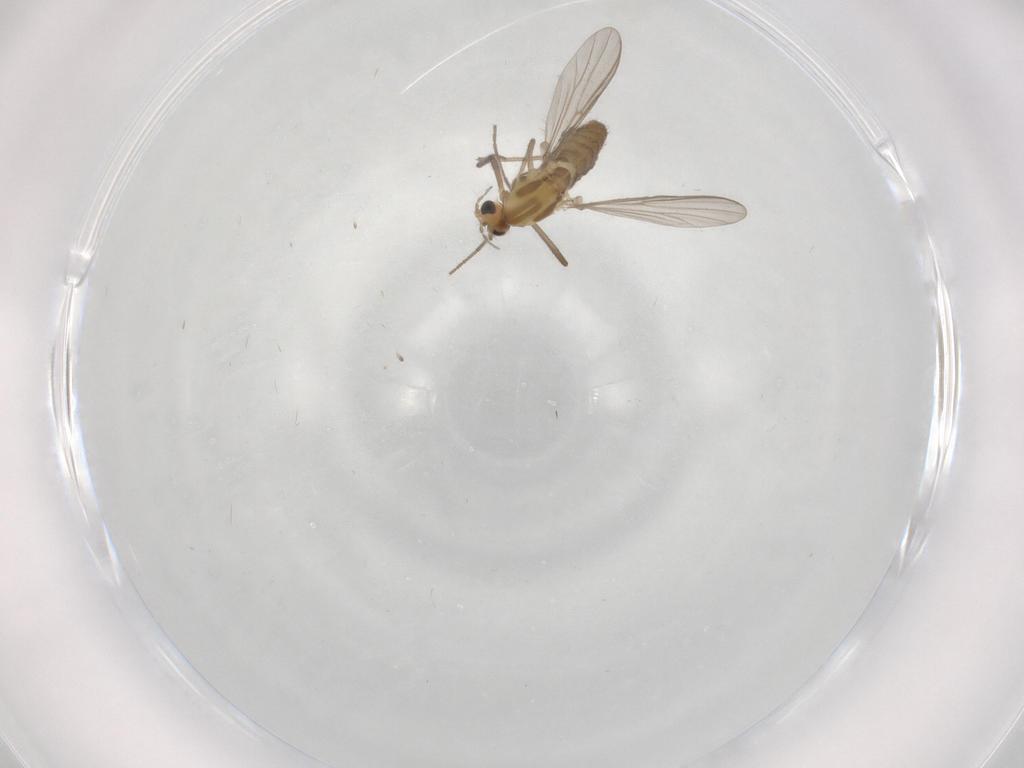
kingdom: Animalia
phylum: Arthropoda
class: Insecta
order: Diptera
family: Chironomidae
